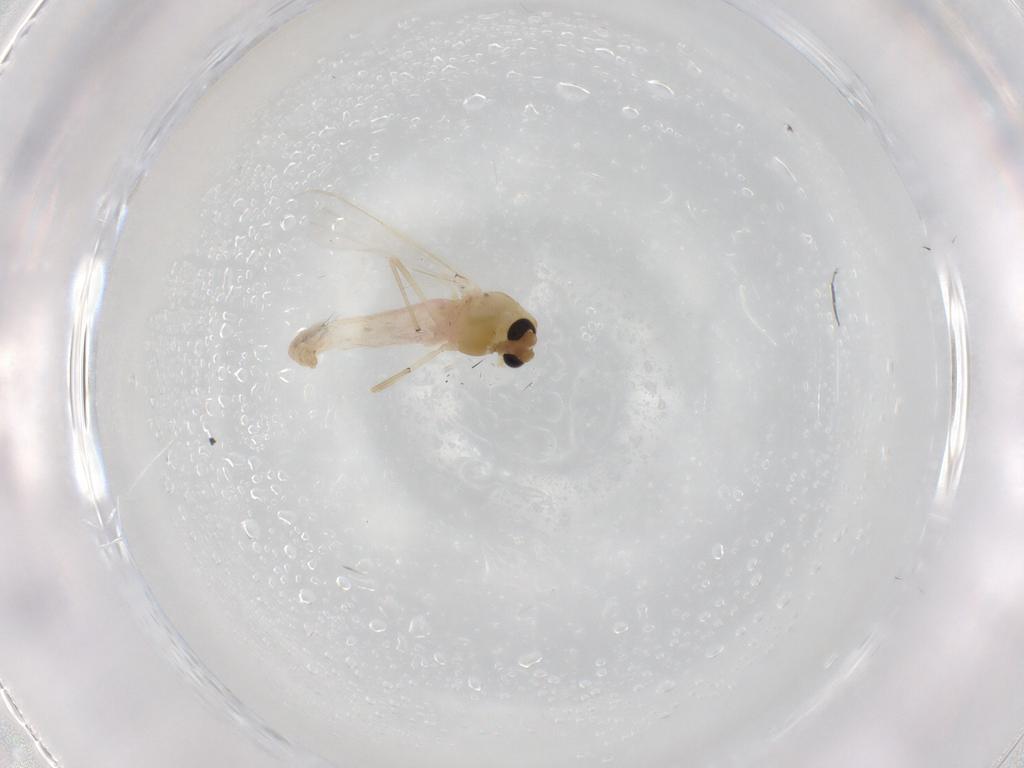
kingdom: Animalia
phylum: Arthropoda
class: Insecta
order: Diptera
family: Chironomidae
